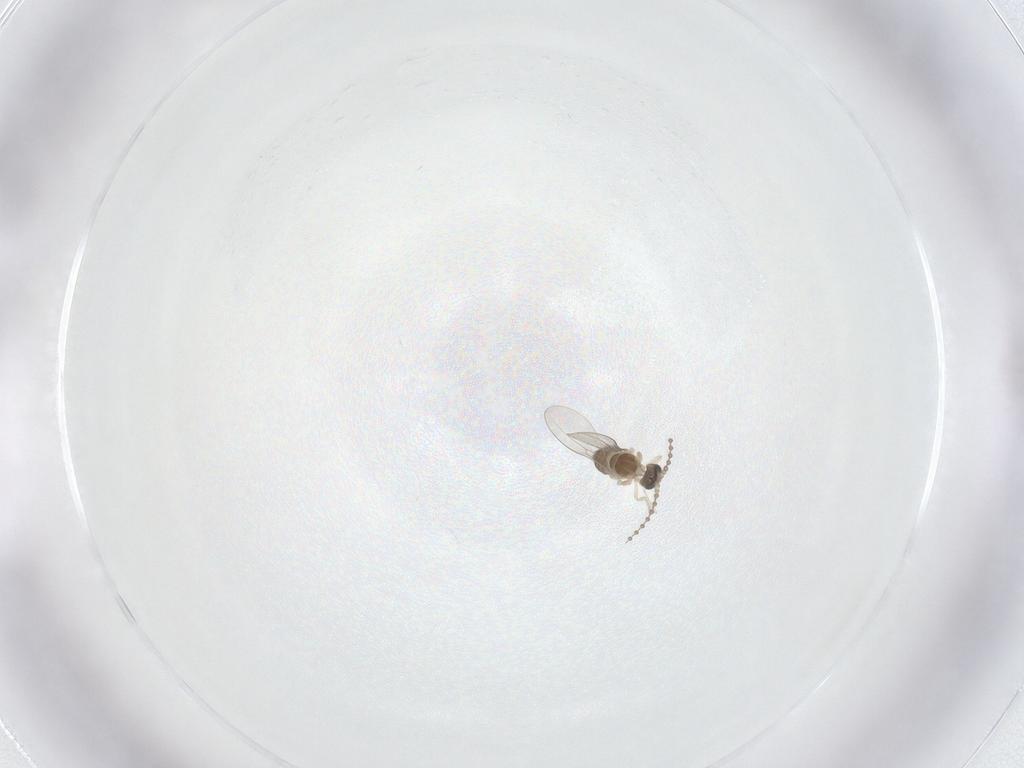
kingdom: Animalia
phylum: Arthropoda
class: Insecta
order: Diptera
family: Cecidomyiidae
